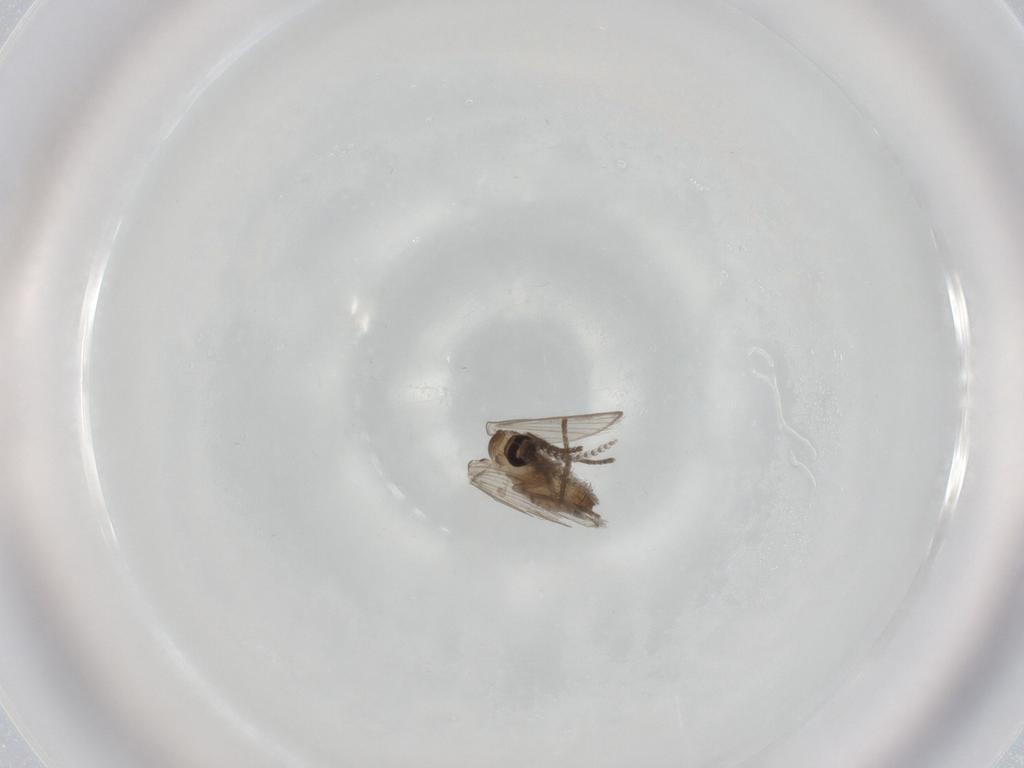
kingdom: Animalia
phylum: Arthropoda
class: Insecta
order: Diptera
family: Psychodidae
